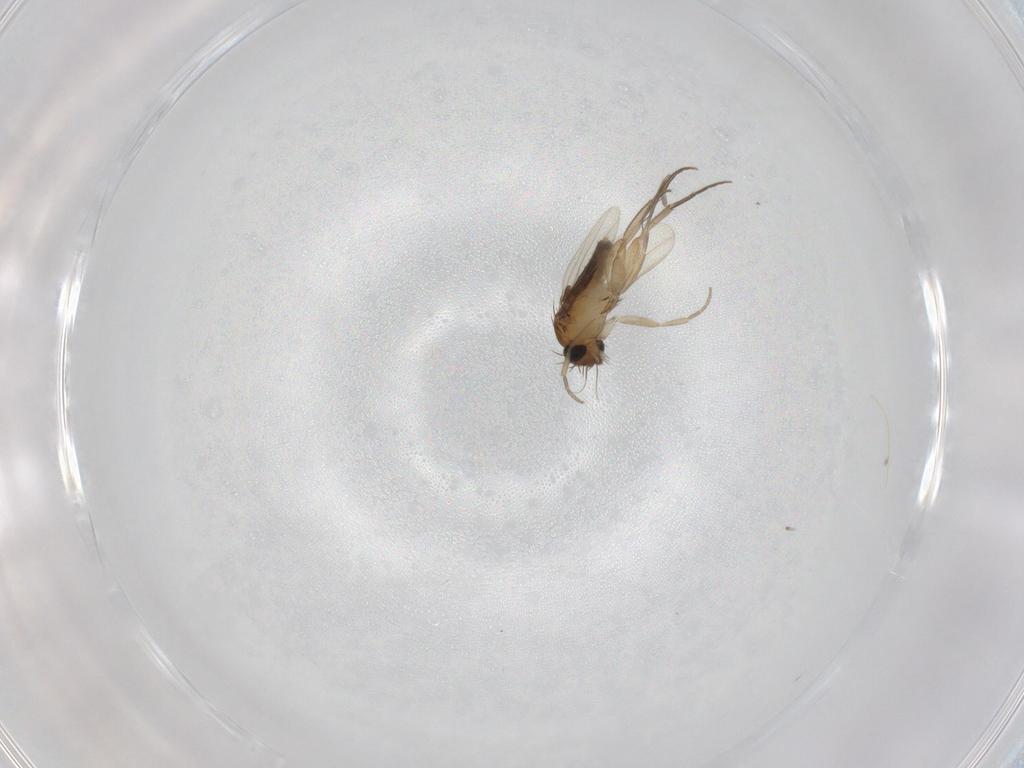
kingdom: Animalia
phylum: Arthropoda
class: Insecta
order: Diptera
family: Phoridae
